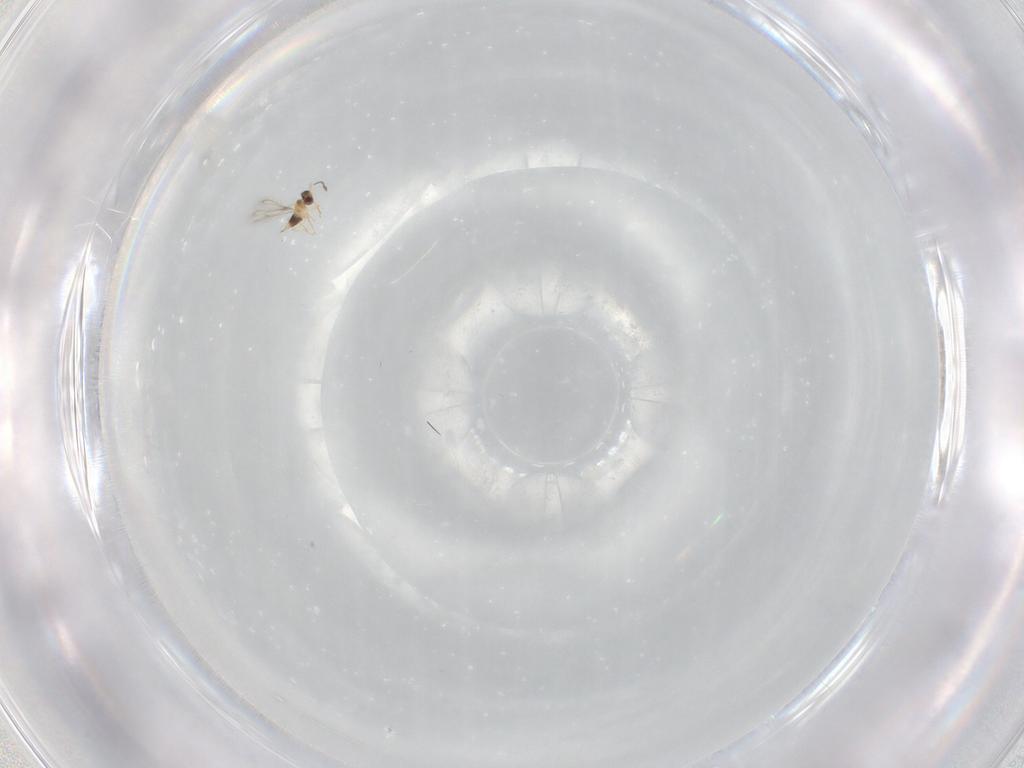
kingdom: Animalia
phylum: Arthropoda
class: Insecta
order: Hymenoptera
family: Mymaridae
